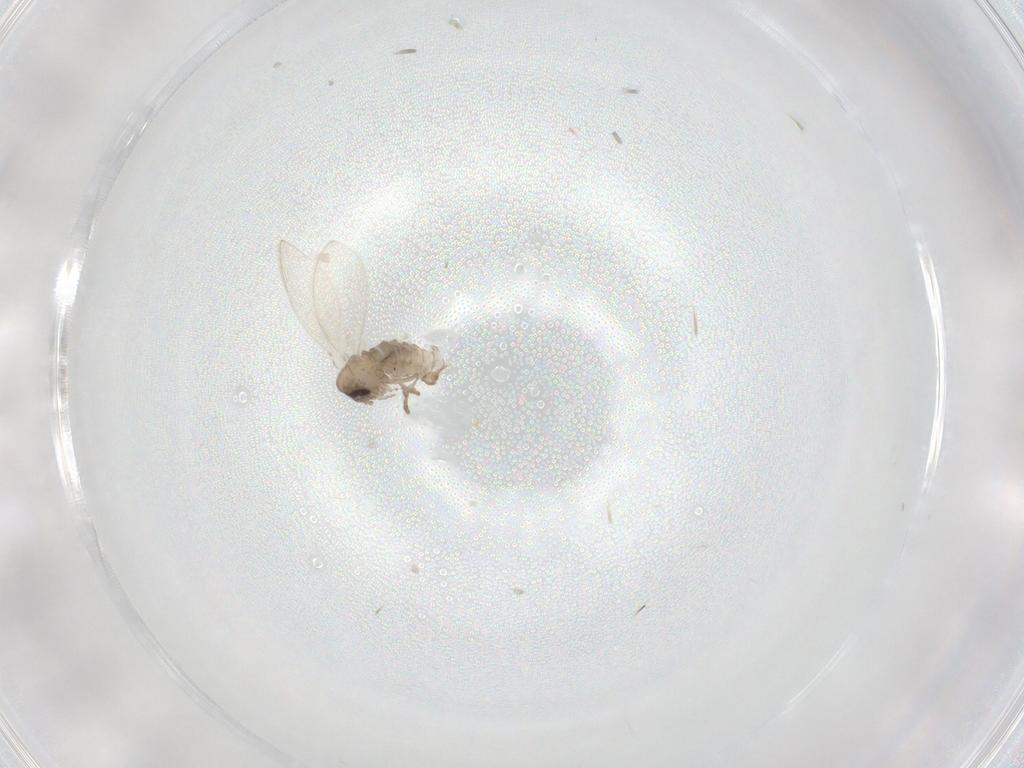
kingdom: Animalia
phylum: Arthropoda
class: Insecta
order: Diptera
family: Psychodidae
